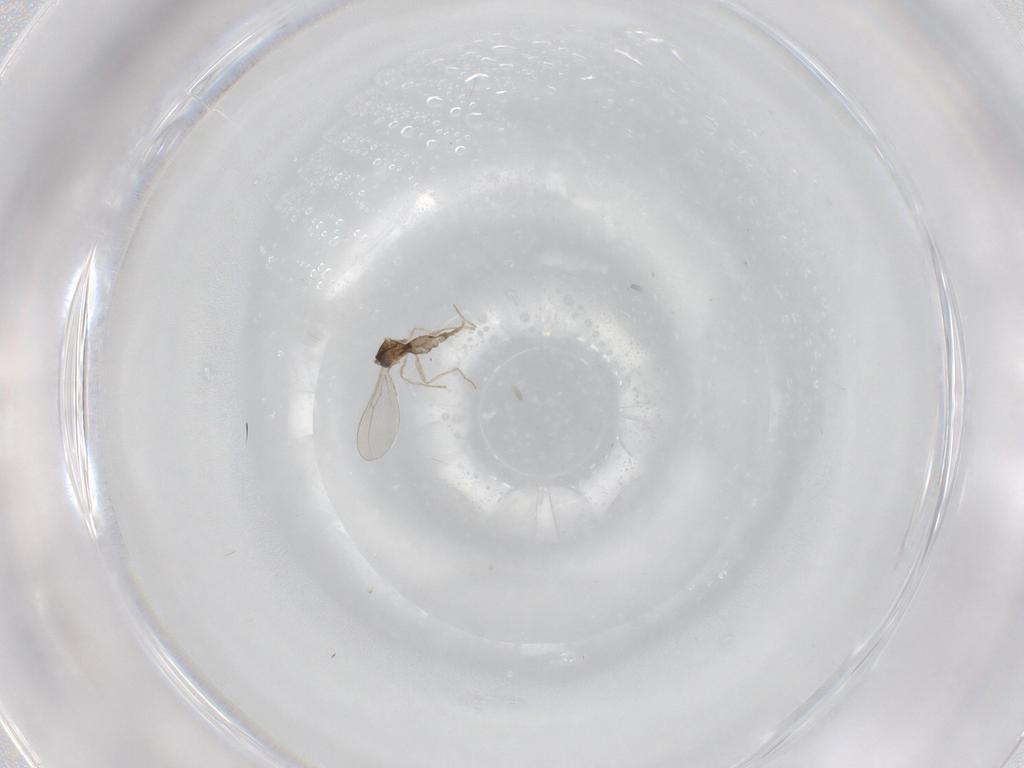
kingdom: Animalia
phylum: Arthropoda
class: Insecta
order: Diptera
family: Cecidomyiidae
